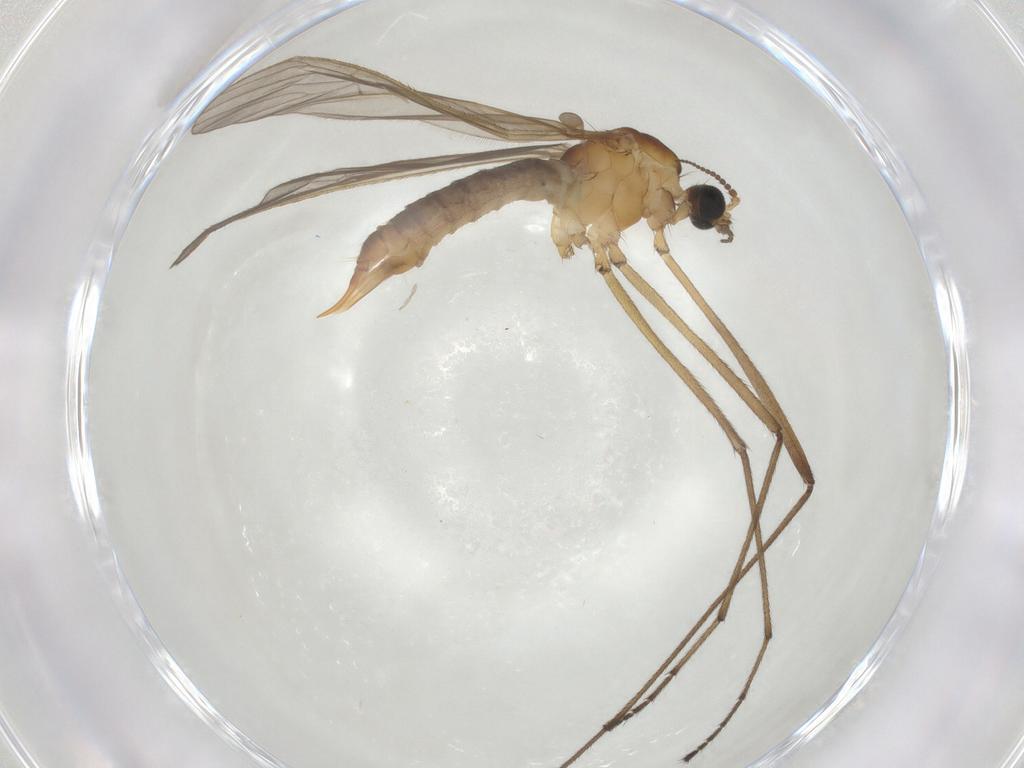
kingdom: Animalia
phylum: Arthropoda
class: Insecta
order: Diptera
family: Limoniidae
